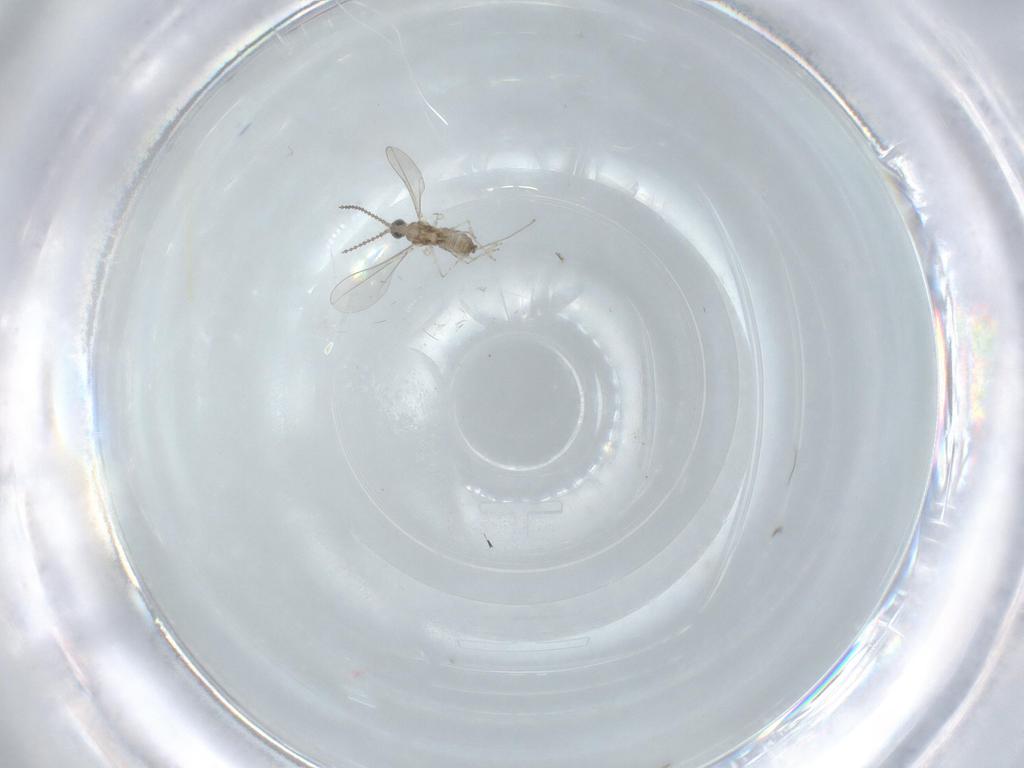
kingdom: Animalia
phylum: Arthropoda
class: Insecta
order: Diptera
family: Cecidomyiidae
